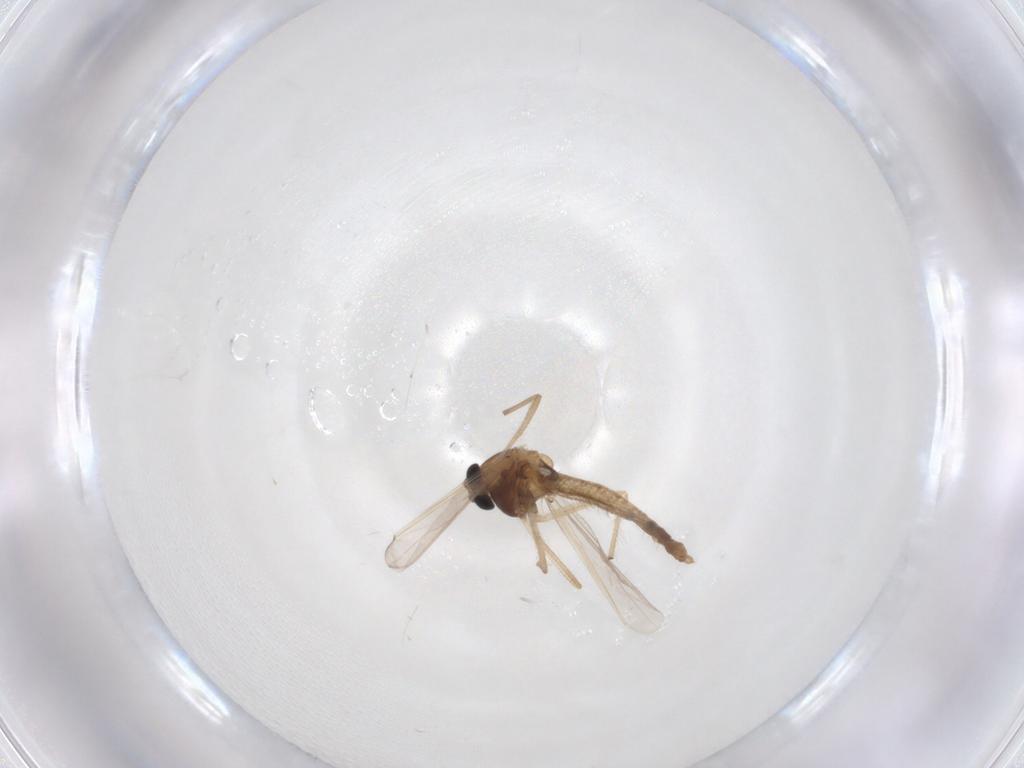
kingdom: Animalia
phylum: Arthropoda
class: Insecta
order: Diptera
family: Chironomidae
